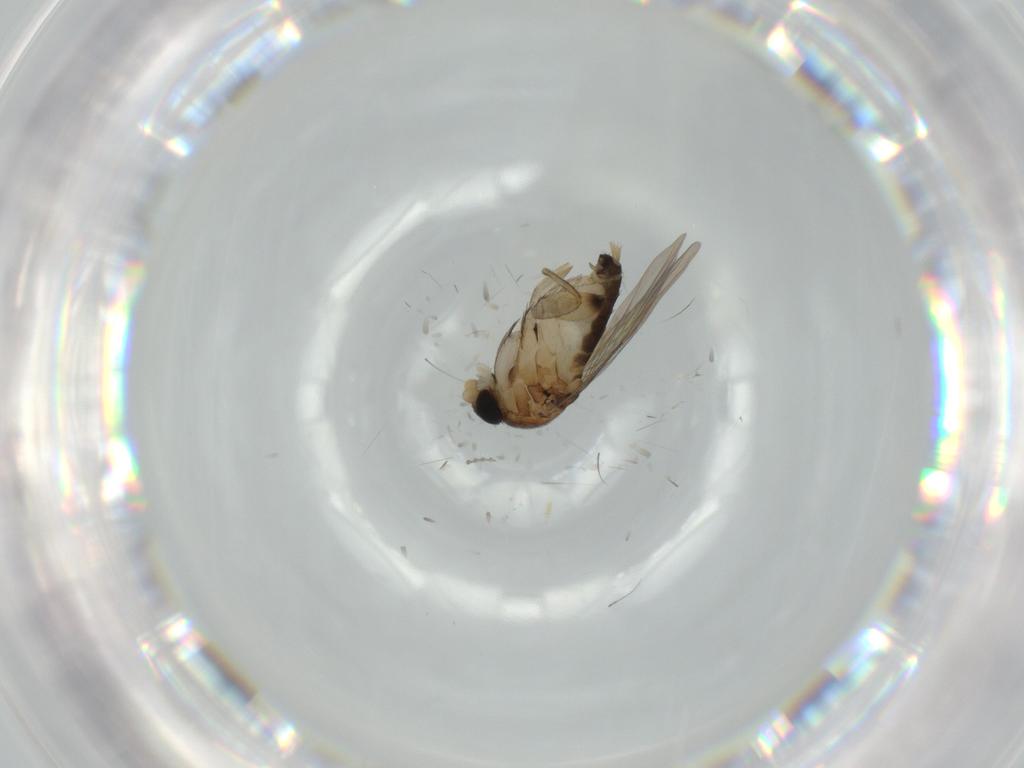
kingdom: Animalia
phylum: Arthropoda
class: Insecta
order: Diptera
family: Phoridae
